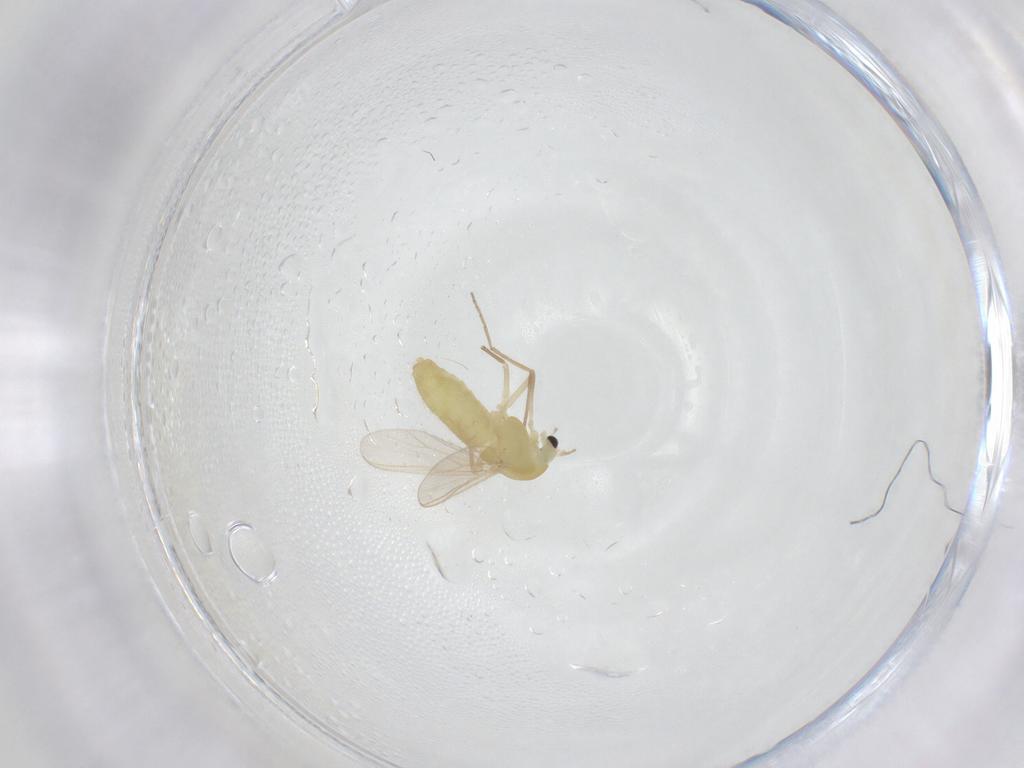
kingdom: Animalia
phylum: Arthropoda
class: Insecta
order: Diptera
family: Chironomidae
